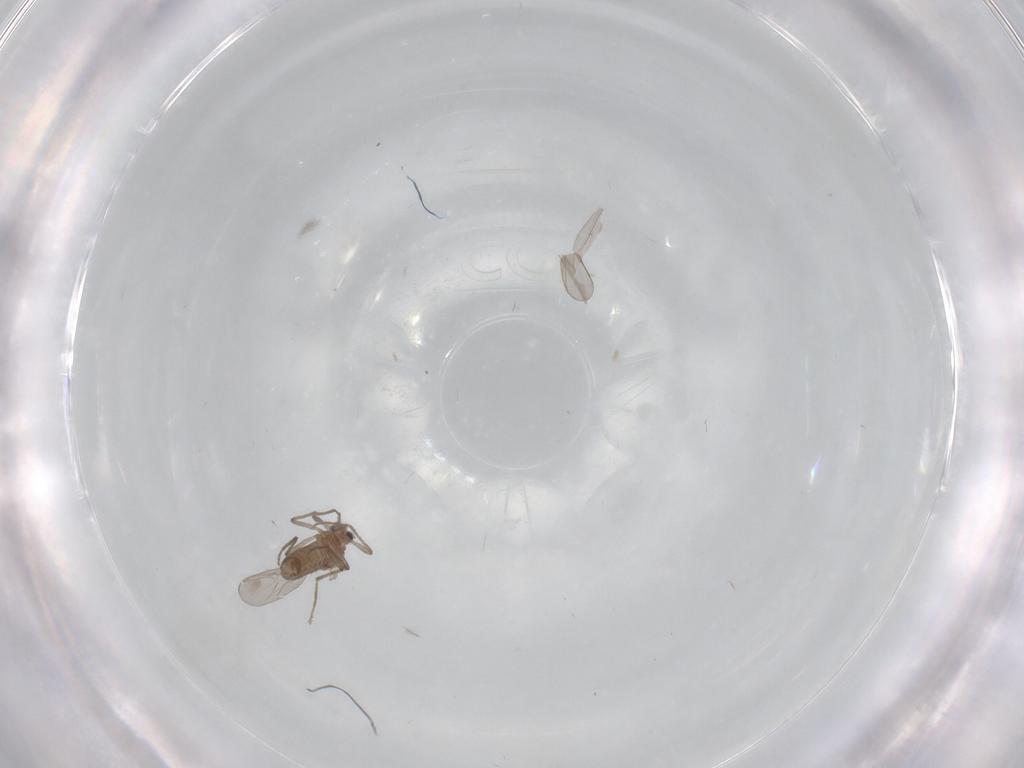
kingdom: Animalia
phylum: Arthropoda
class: Insecta
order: Diptera
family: Chironomidae
